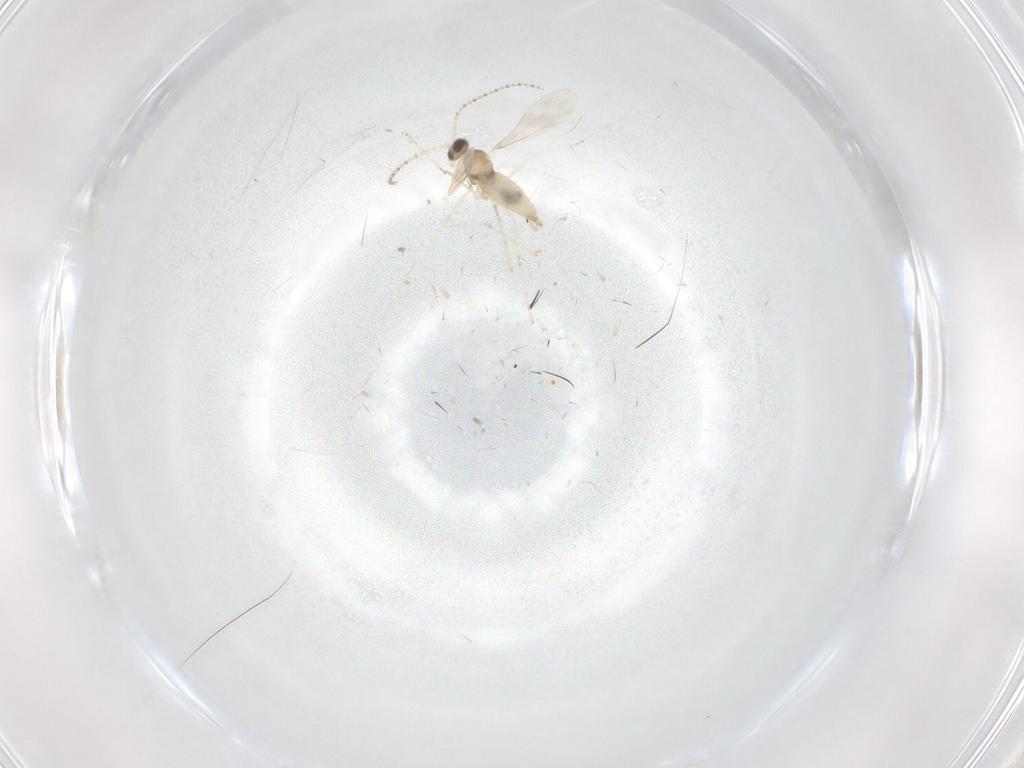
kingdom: Animalia
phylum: Arthropoda
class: Insecta
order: Diptera
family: Cecidomyiidae
